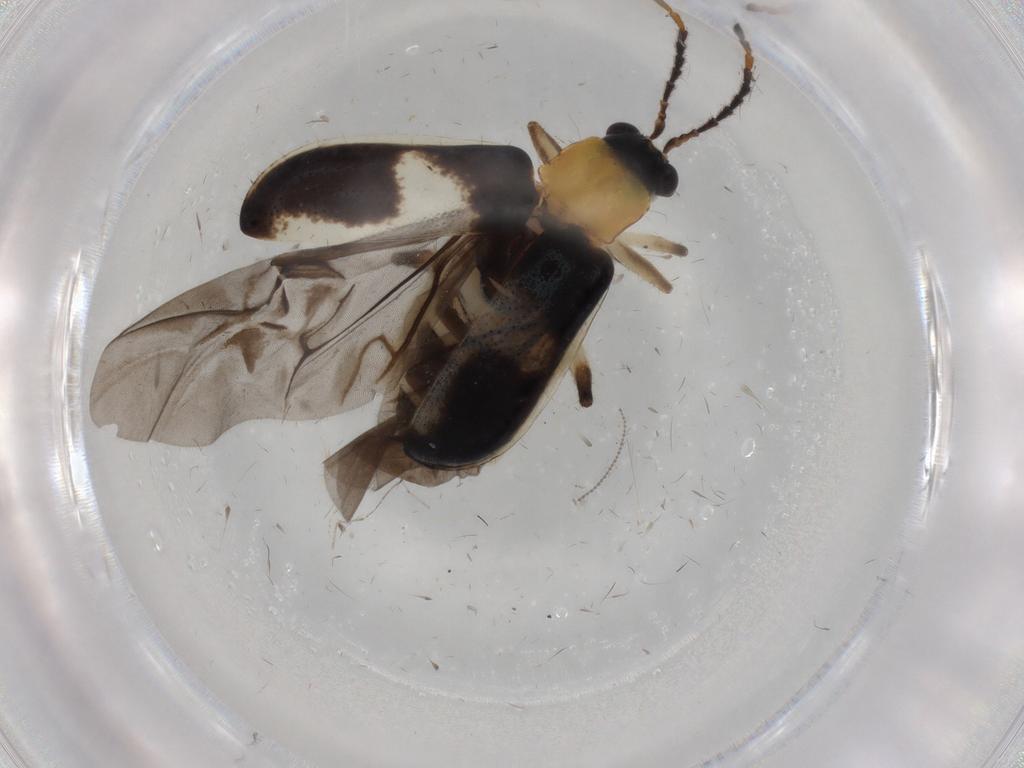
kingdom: Animalia
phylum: Arthropoda
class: Insecta
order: Coleoptera
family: Chrysomelidae
